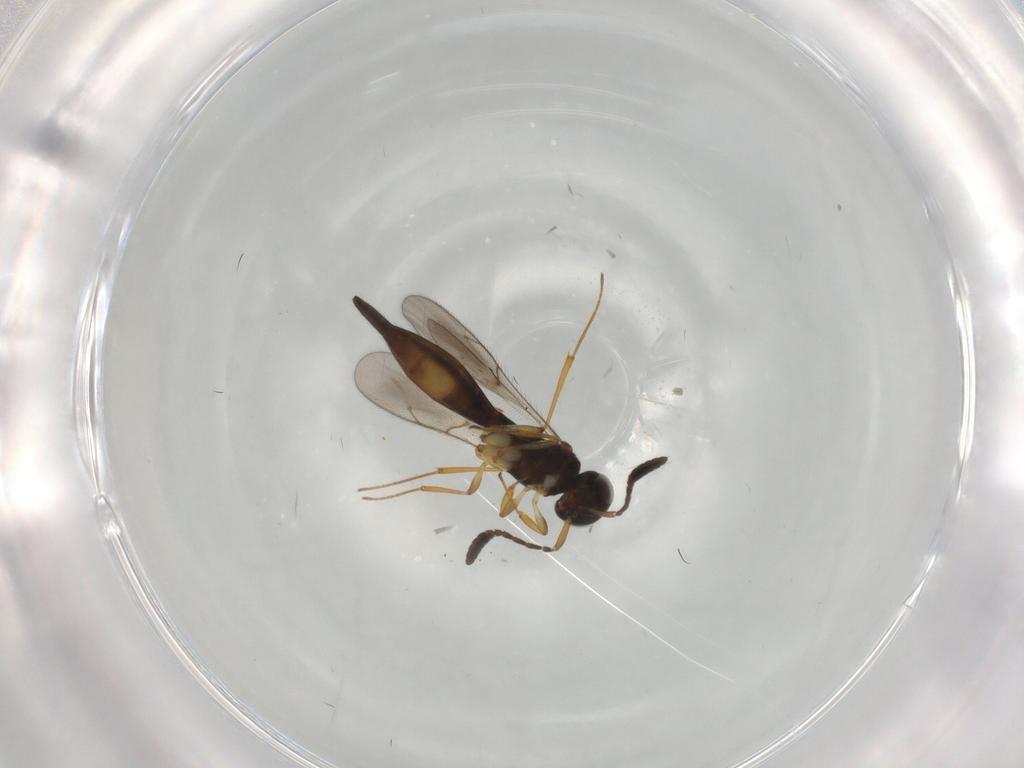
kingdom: Animalia
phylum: Arthropoda
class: Insecta
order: Hymenoptera
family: Scelionidae
